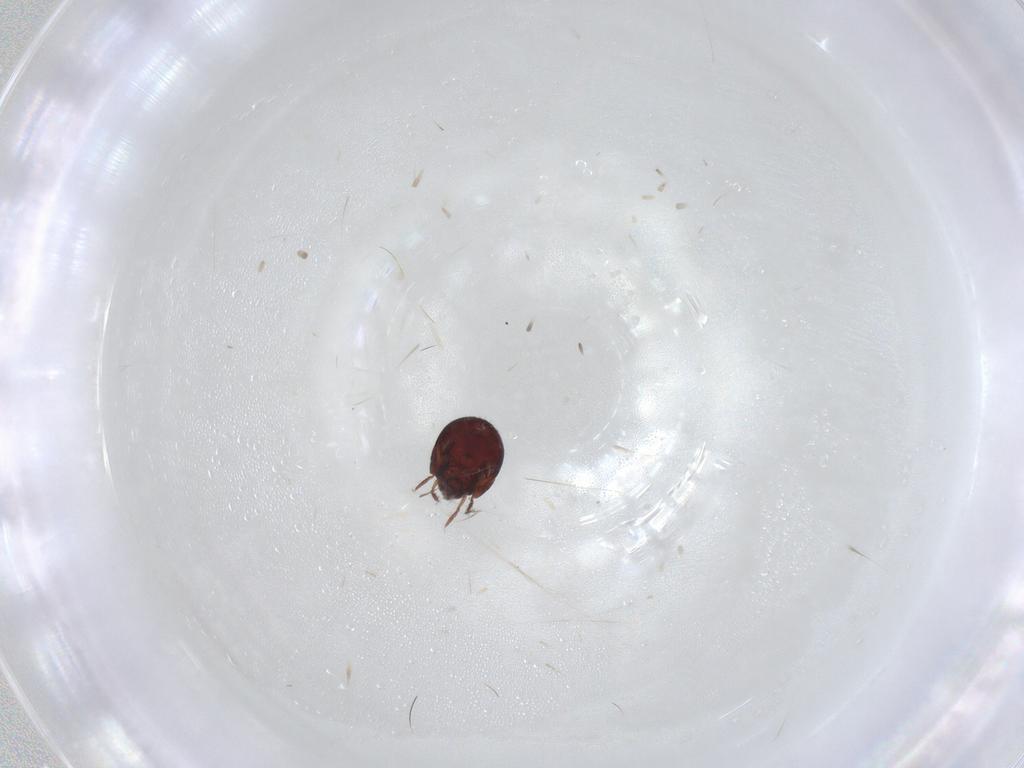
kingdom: Animalia
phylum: Arthropoda
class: Arachnida
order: Sarcoptiformes
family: Humerobatidae
